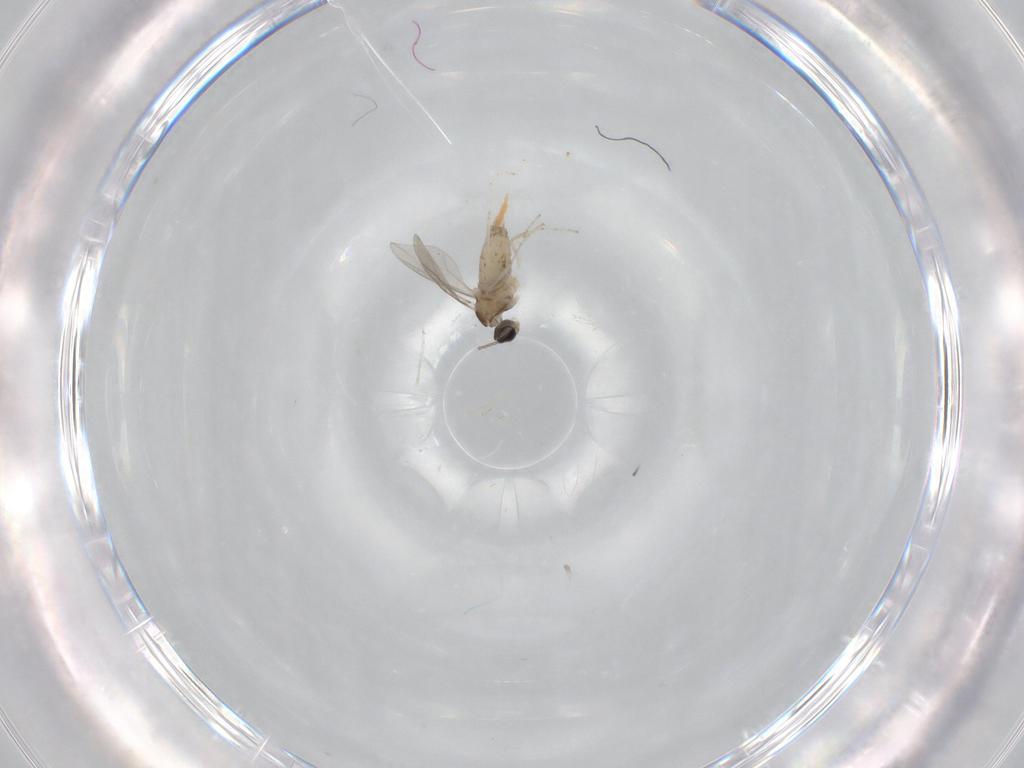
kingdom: Animalia
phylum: Arthropoda
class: Insecta
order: Diptera
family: Cecidomyiidae
